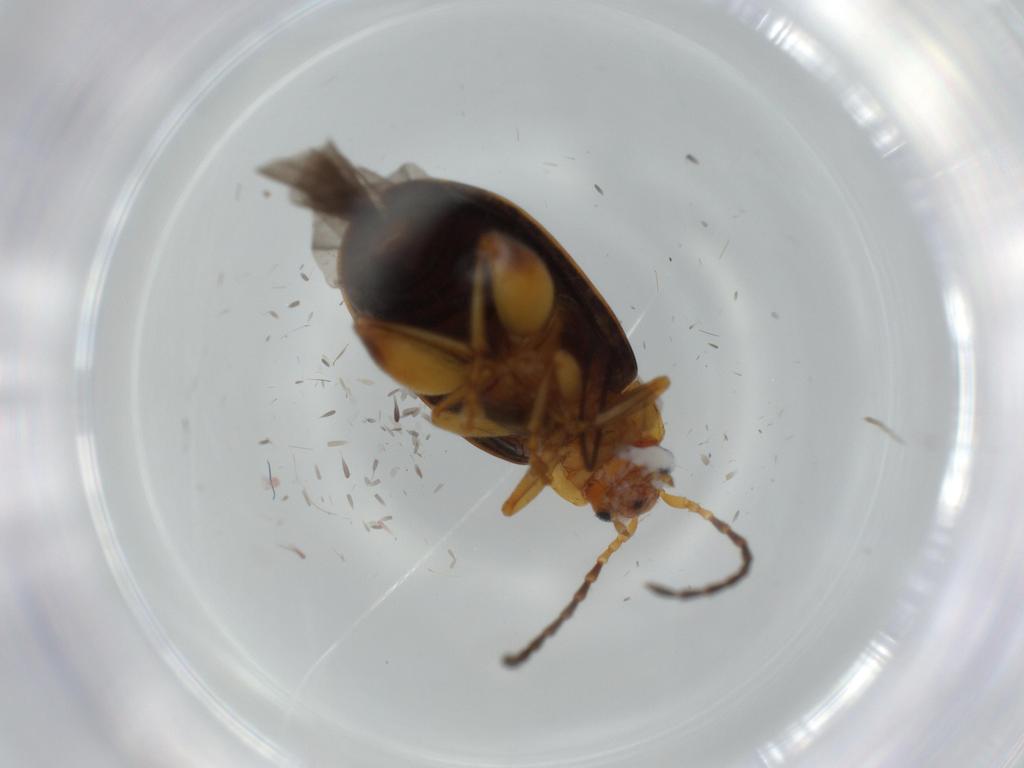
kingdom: Animalia
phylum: Arthropoda
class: Insecta
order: Coleoptera
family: Chrysomelidae
